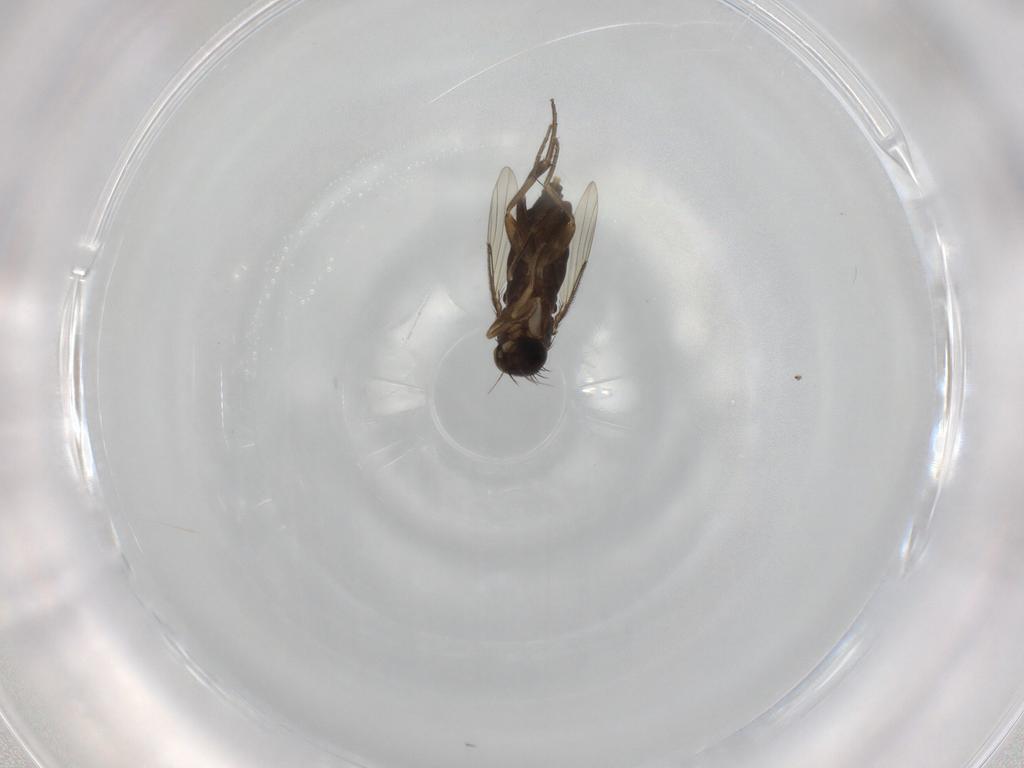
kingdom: Animalia
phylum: Arthropoda
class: Insecta
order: Diptera
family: Phoridae
